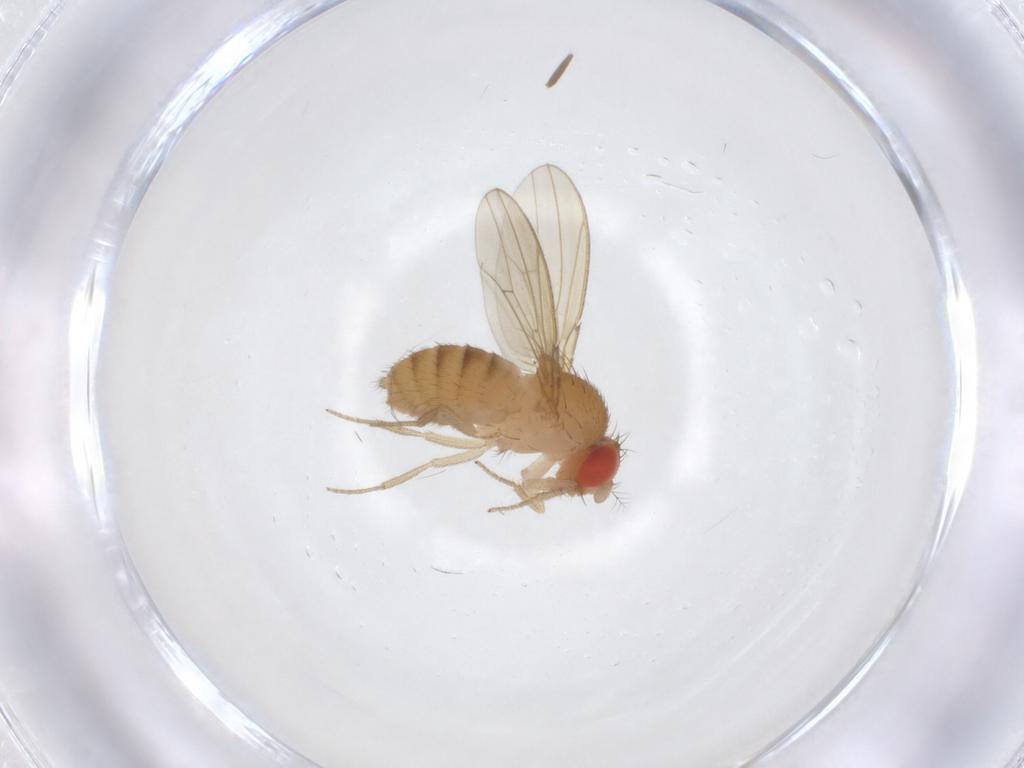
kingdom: Animalia
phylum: Arthropoda
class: Insecta
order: Diptera
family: Drosophilidae
